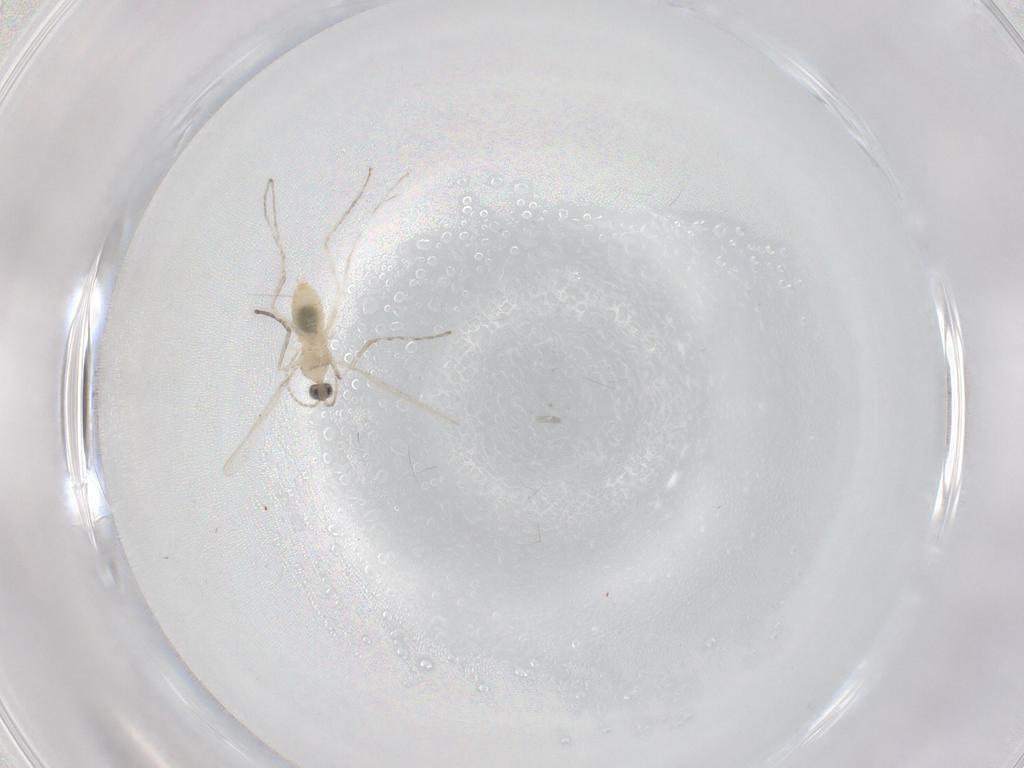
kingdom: Animalia
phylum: Arthropoda
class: Insecta
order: Diptera
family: Cecidomyiidae
